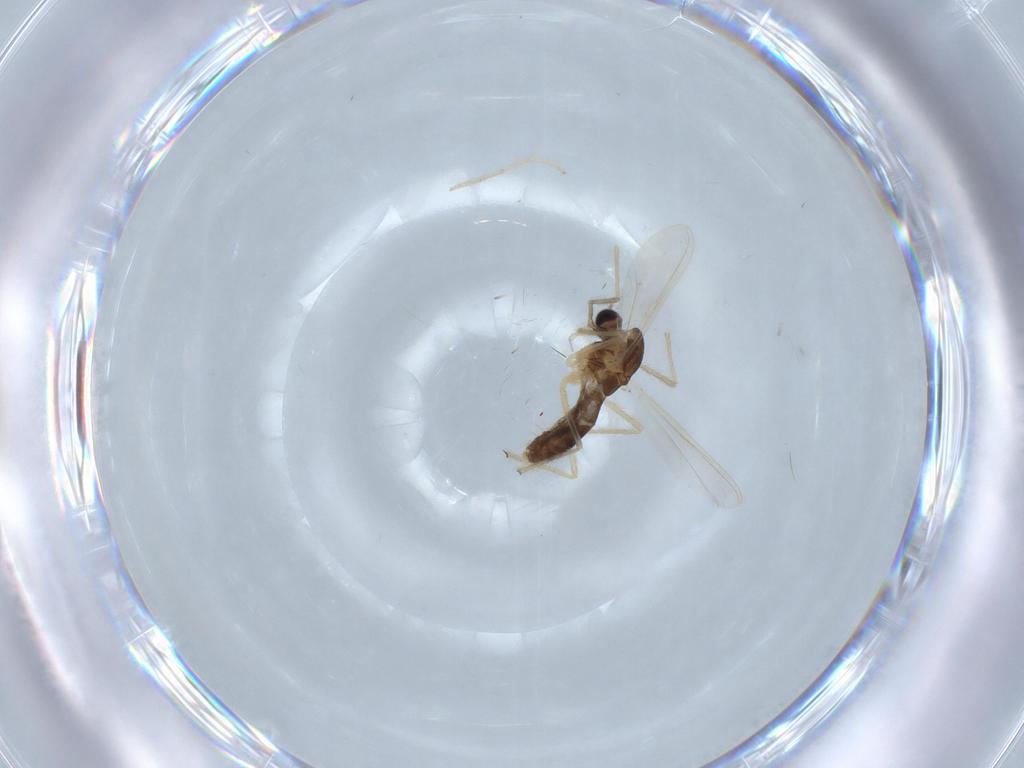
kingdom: Animalia
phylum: Arthropoda
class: Insecta
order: Diptera
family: Chironomidae
